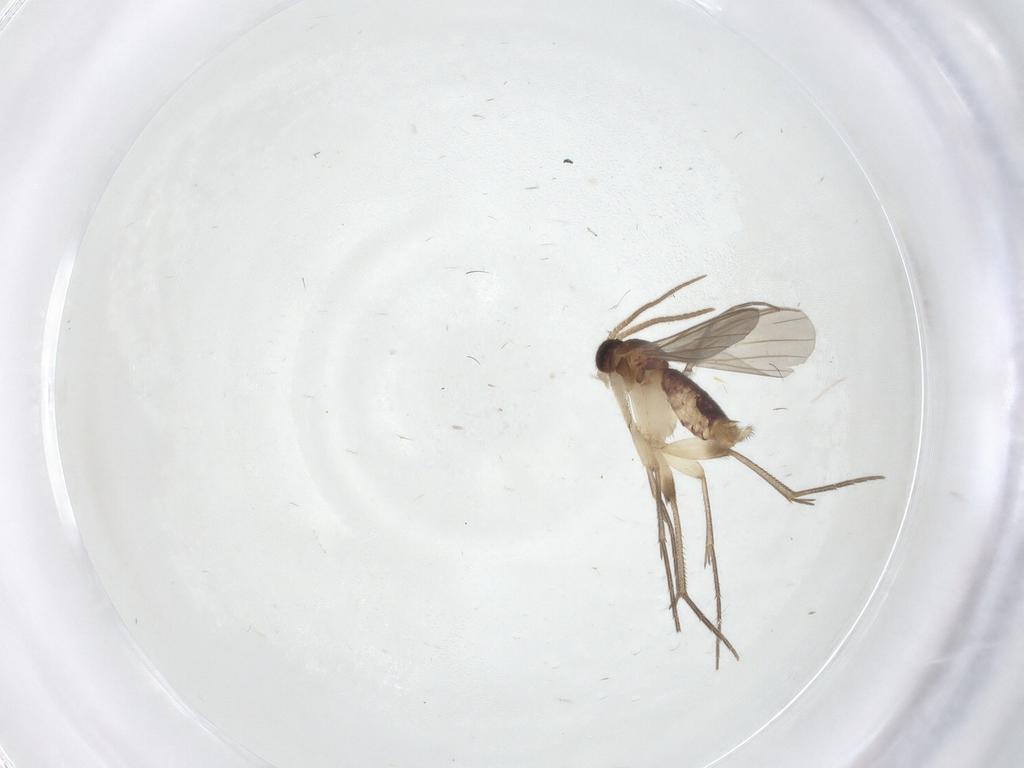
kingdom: Animalia
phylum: Arthropoda
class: Insecta
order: Diptera
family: Mycetophilidae
